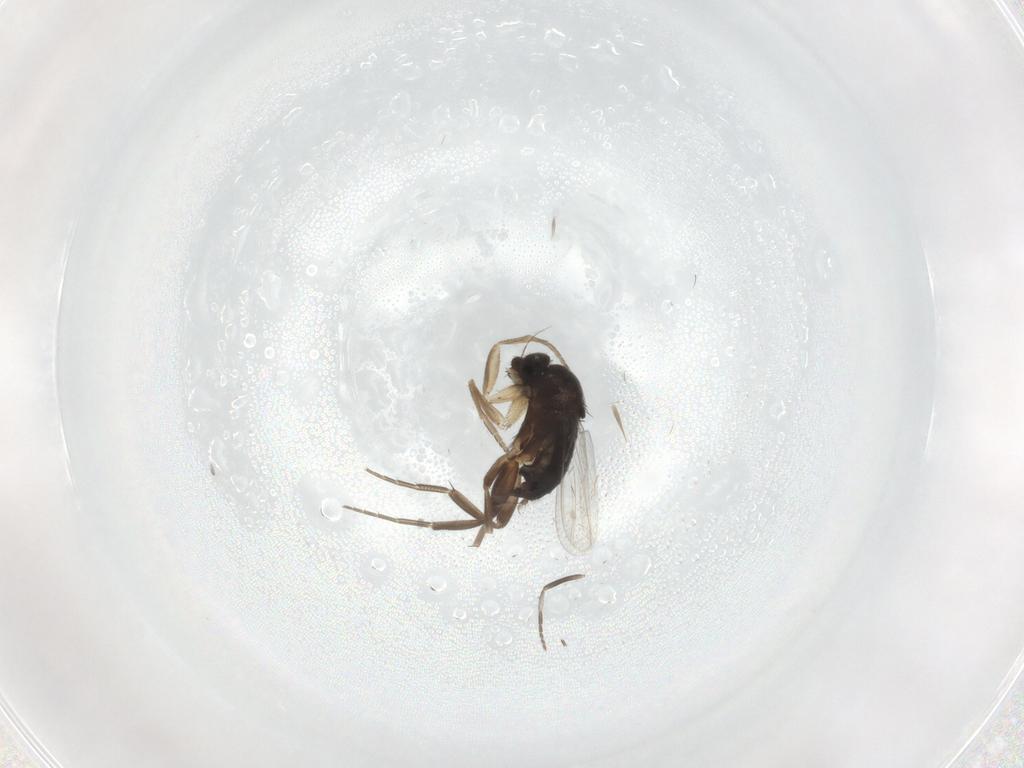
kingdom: Animalia
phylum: Arthropoda
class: Insecta
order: Diptera
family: Phoridae
